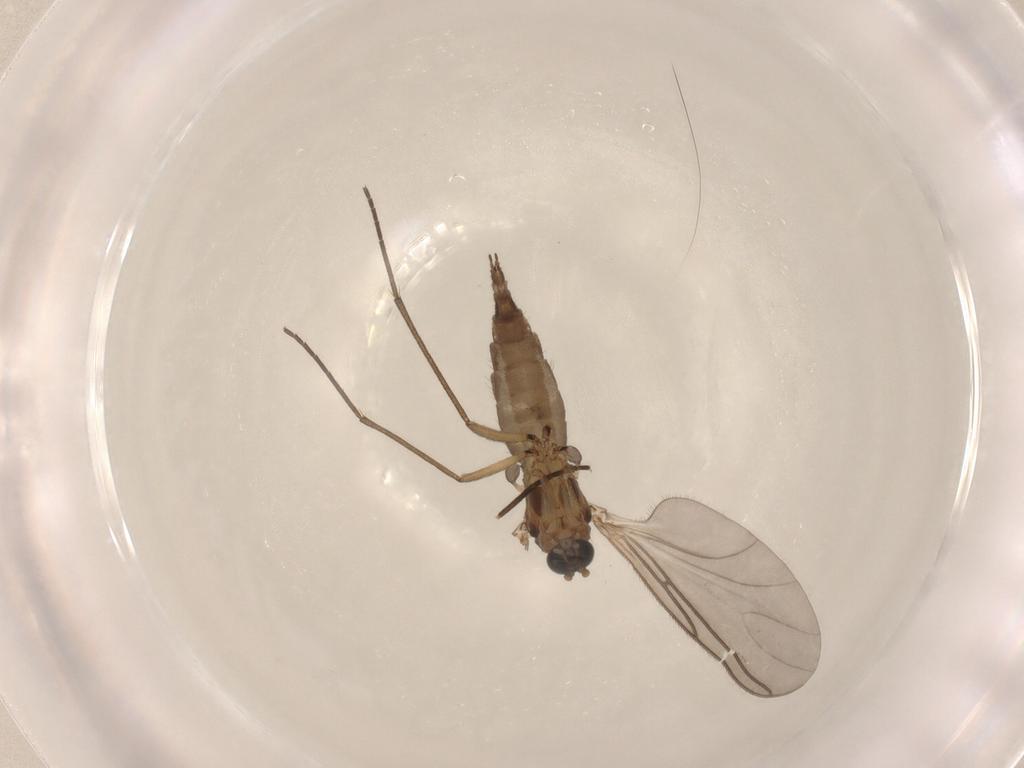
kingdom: Animalia
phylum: Arthropoda
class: Insecta
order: Diptera
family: Sciaridae
